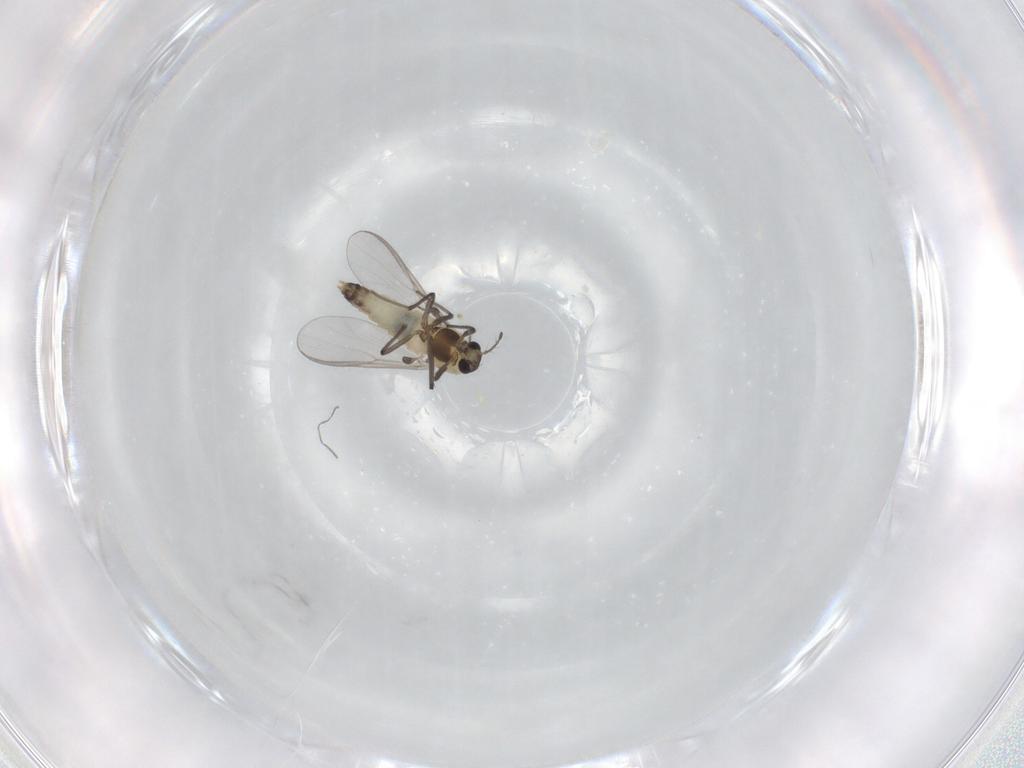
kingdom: Animalia
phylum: Arthropoda
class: Insecta
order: Diptera
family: Chironomidae
